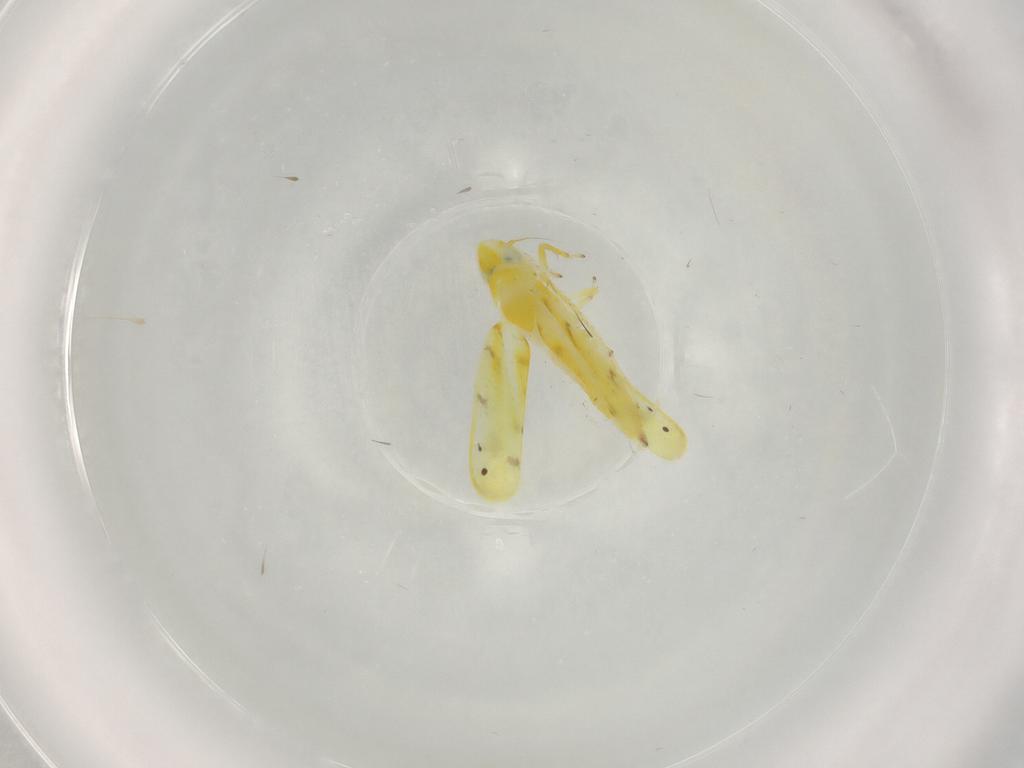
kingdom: Animalia
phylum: Arthropoda
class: Insecta
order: Hemiptera
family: Cicadellidae
